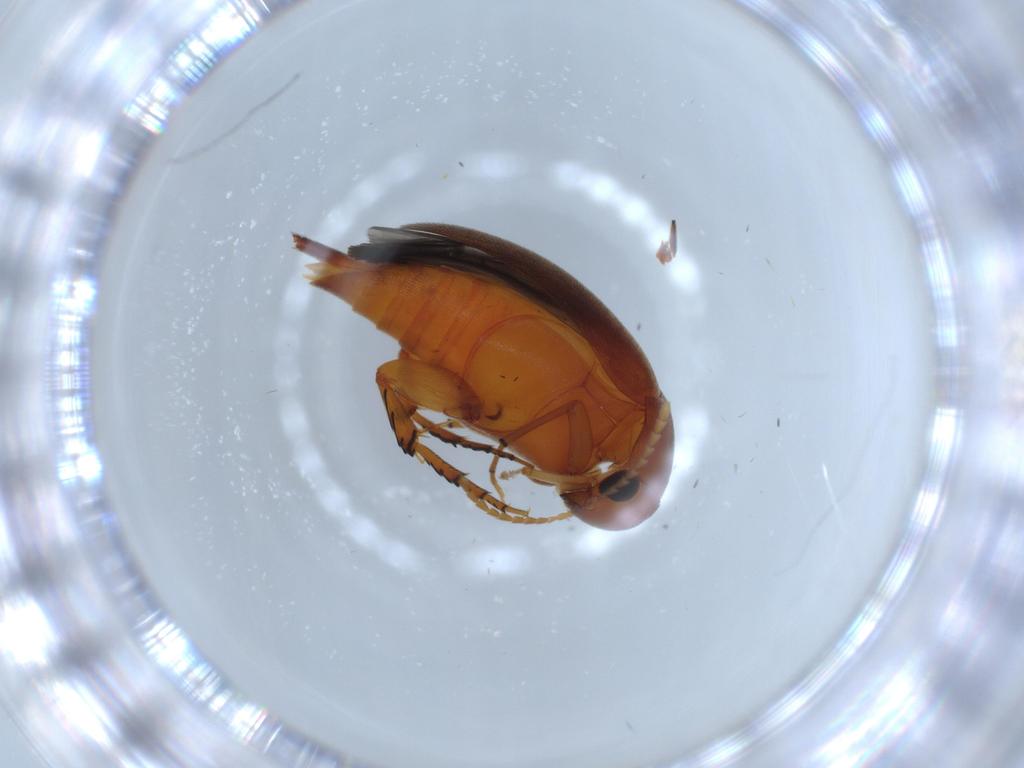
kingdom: Animalia
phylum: Arthropoda
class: Insecta
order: Coleoptera
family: Mordellidae
